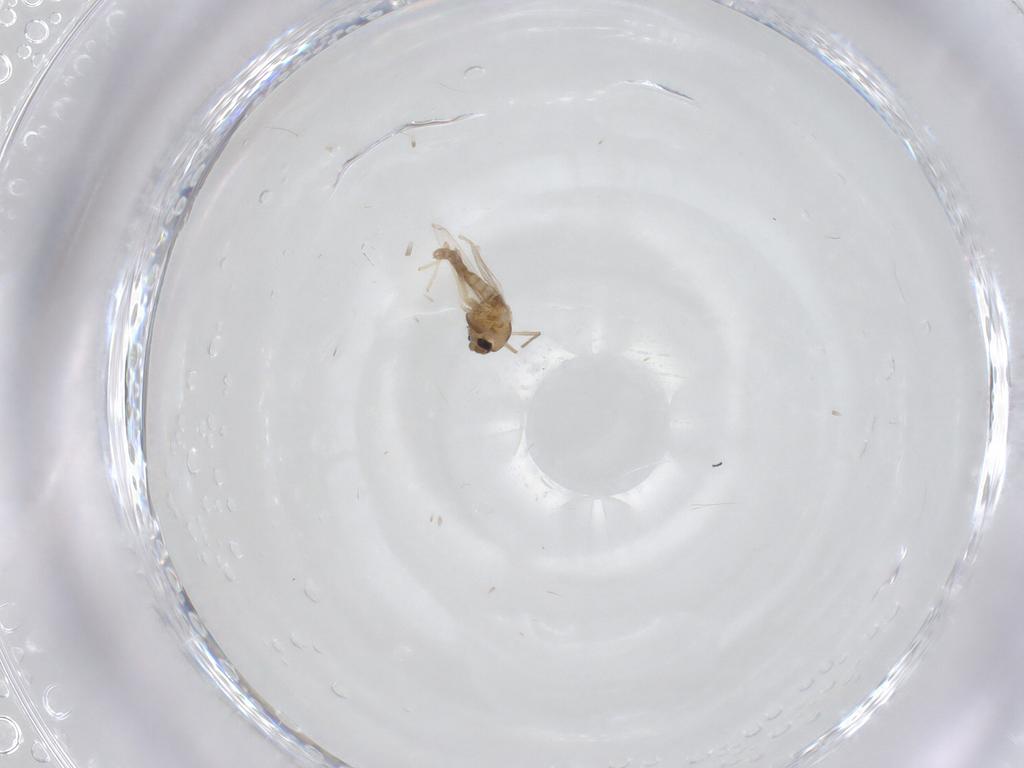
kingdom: Animalia
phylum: Arthropoda
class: Insecta
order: Diptera
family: Chironomidae
